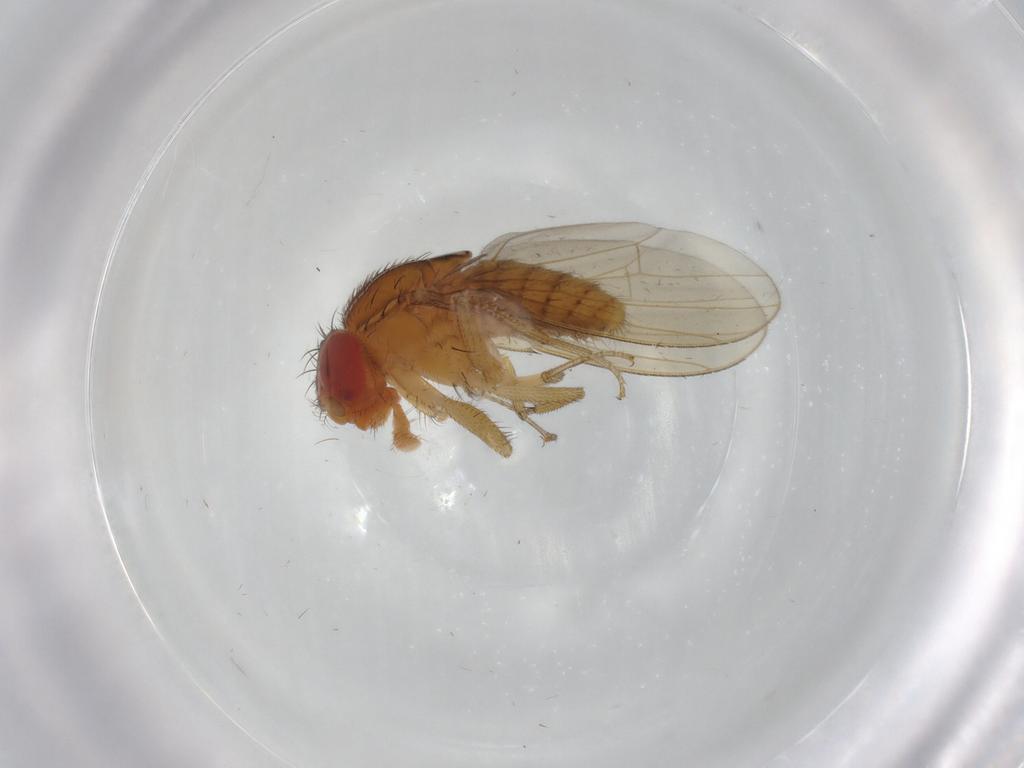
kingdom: Animalia
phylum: Arthropoda
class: Insecta
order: Diptera
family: Drosophilidae
